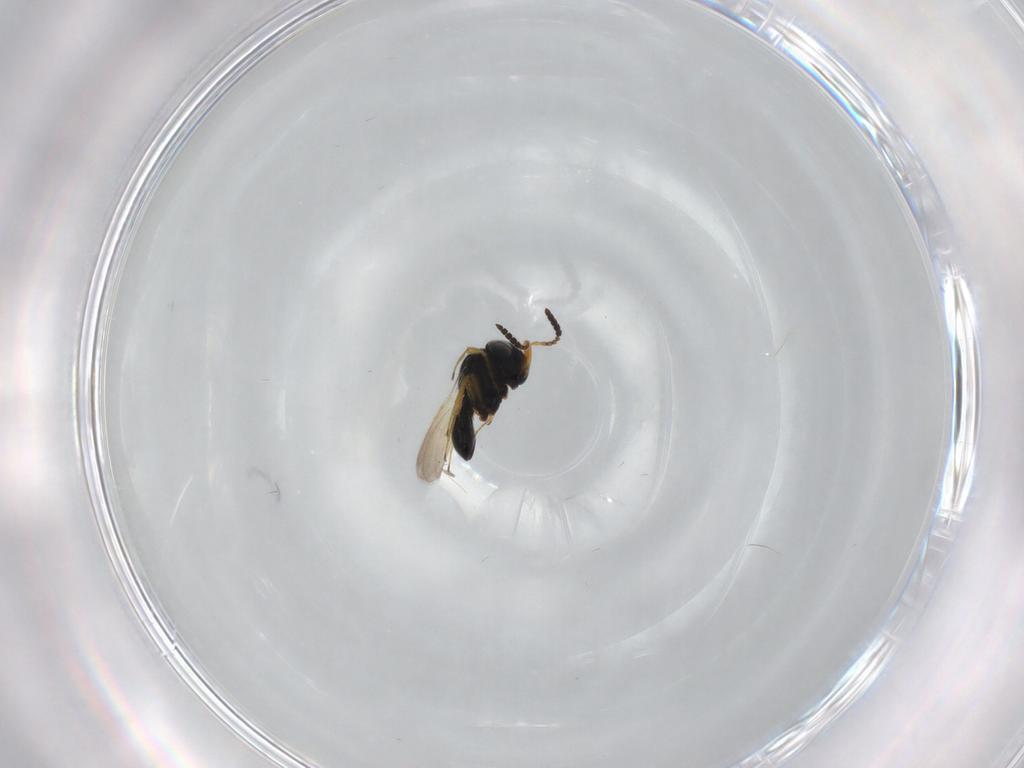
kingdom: Animalia
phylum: Arthropoda
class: Insecta
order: Hymenoptera
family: Scelionidae
